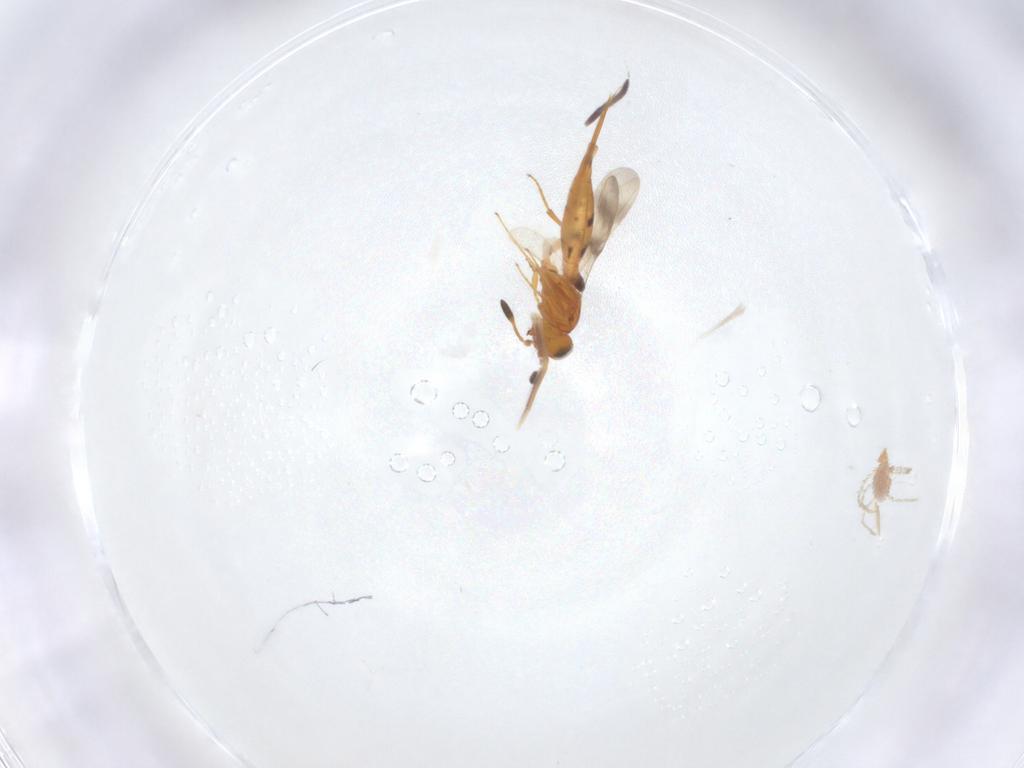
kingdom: Animalia
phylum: Arthropoda
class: Insecta
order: Hymenoptera
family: Scelionidae
